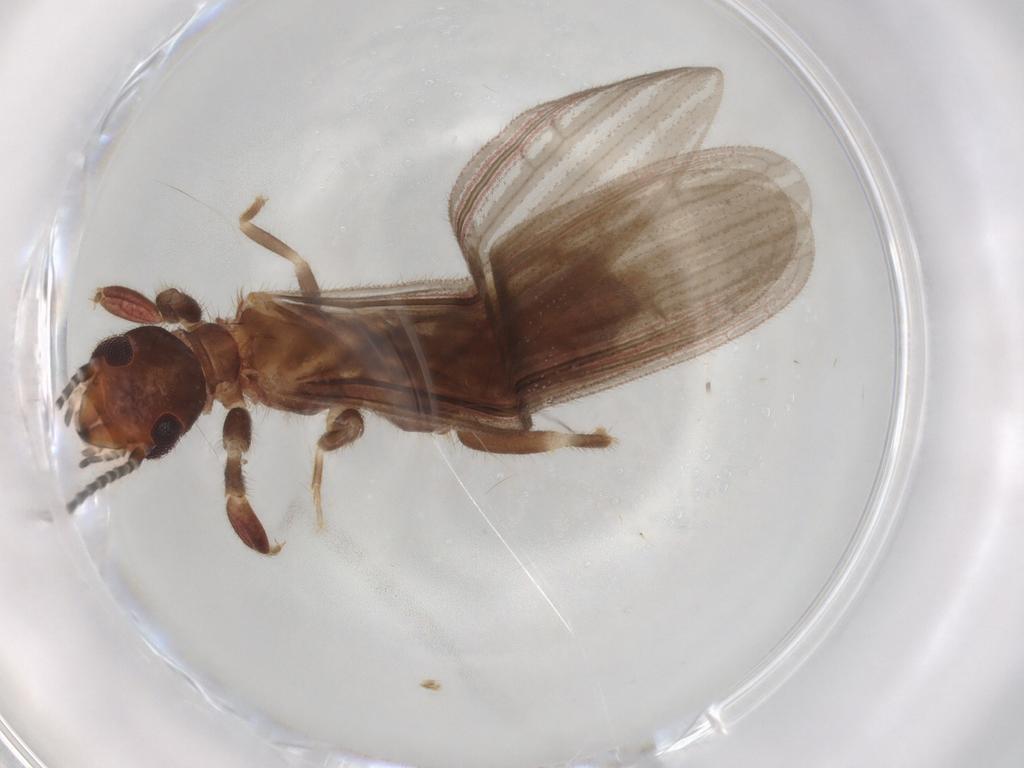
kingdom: Animalia
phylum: Arthropoda
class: Insecta
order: Embioptera
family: Oligotomidae
